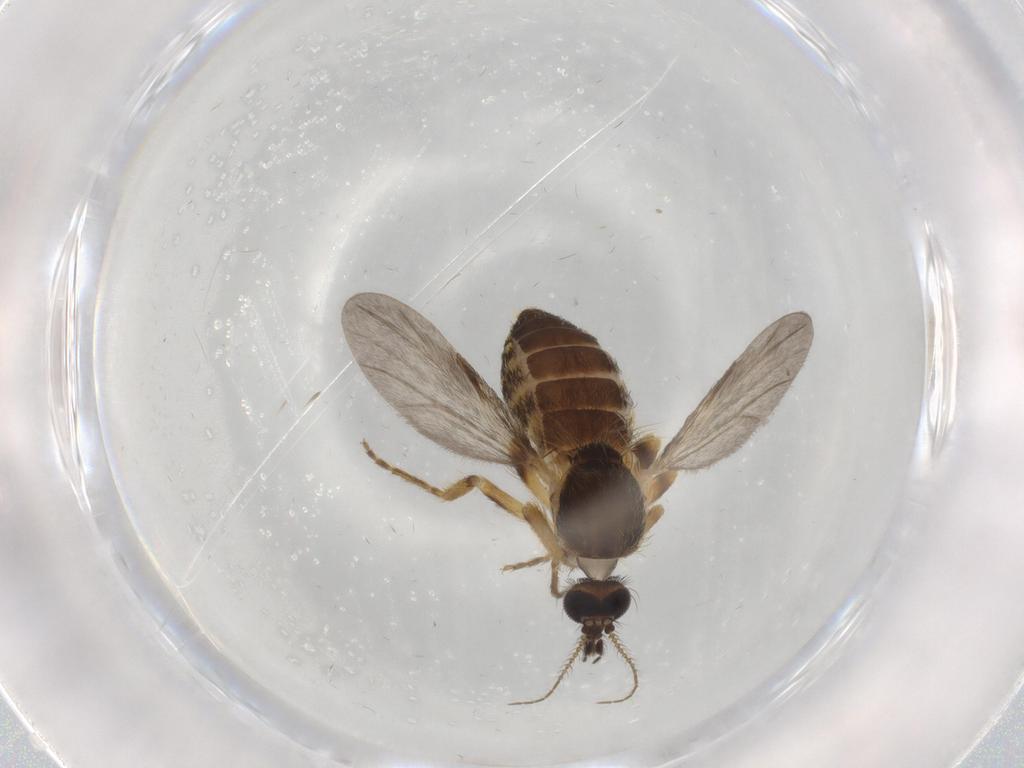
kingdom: Animalia
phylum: Arthropoda
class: Insecta
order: Diptera
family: Ceratopogonidae
